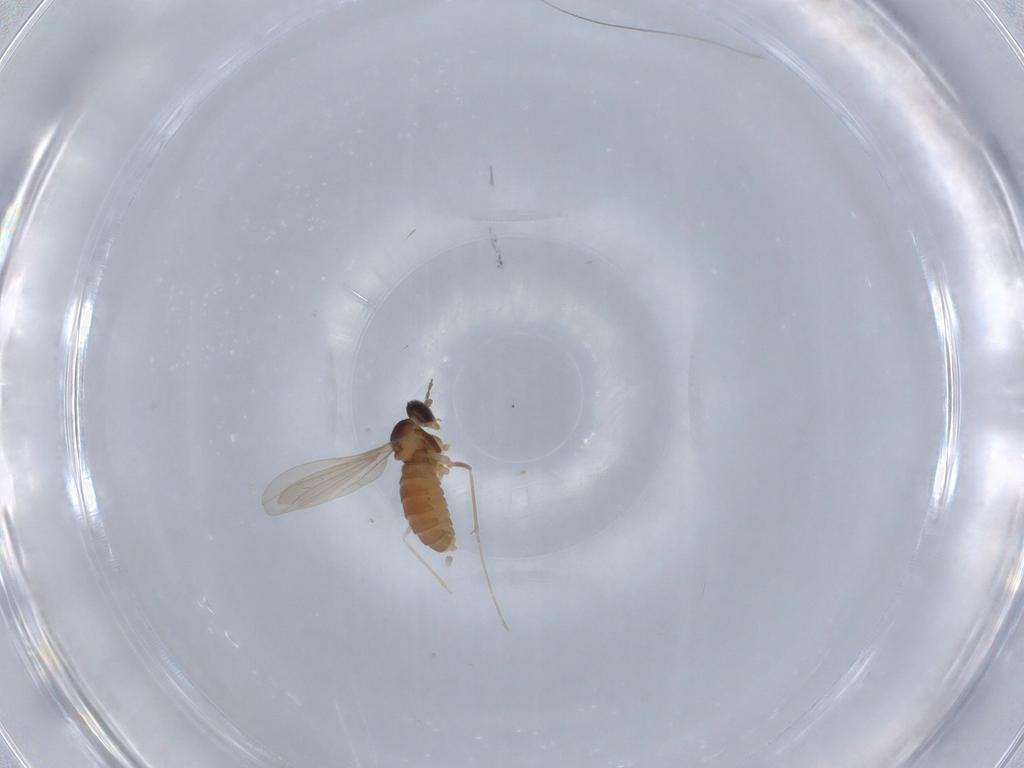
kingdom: Animalia
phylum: Arthropoda
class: Insecta
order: Diptera
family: Cecidomyiidae
